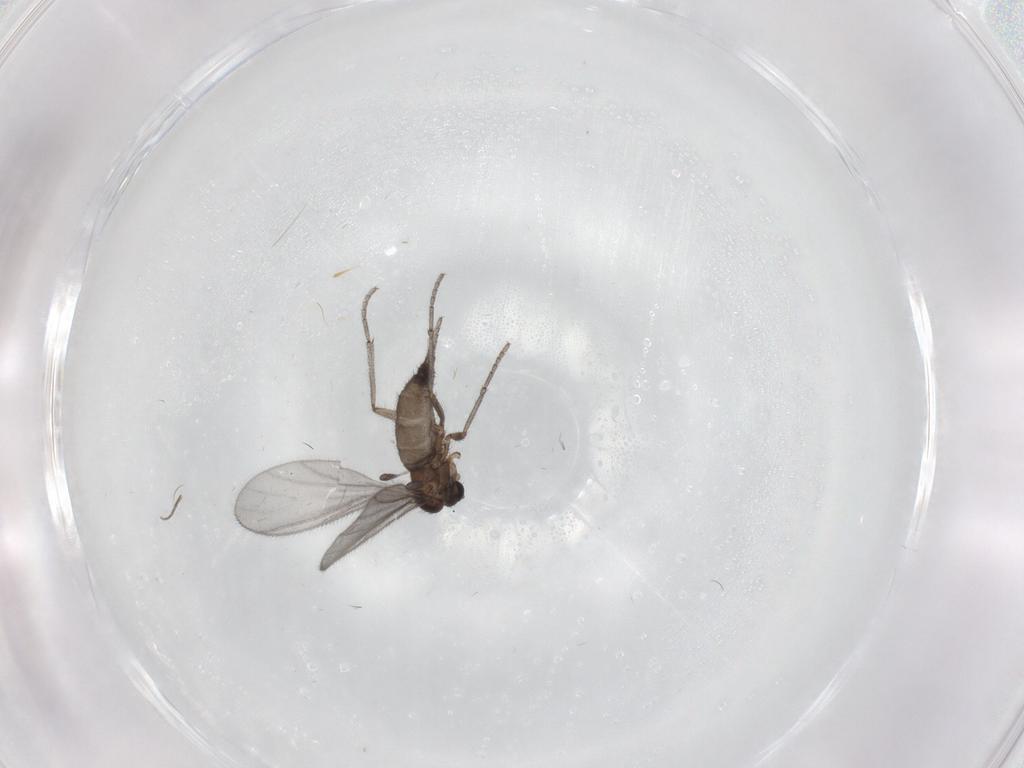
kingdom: Animalia
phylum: Arthropoda
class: Insecta
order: Diptera
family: Sciaridae
